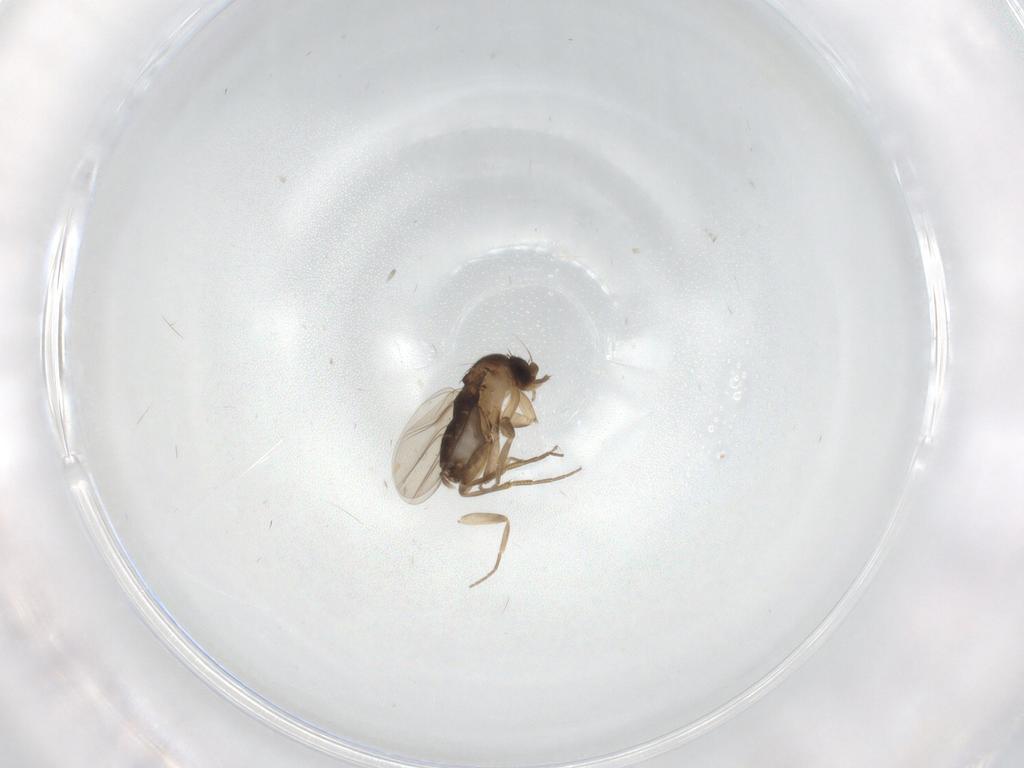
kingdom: Animalia
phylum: Arthropoda
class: Insecta
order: Diptera
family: Phoridae
